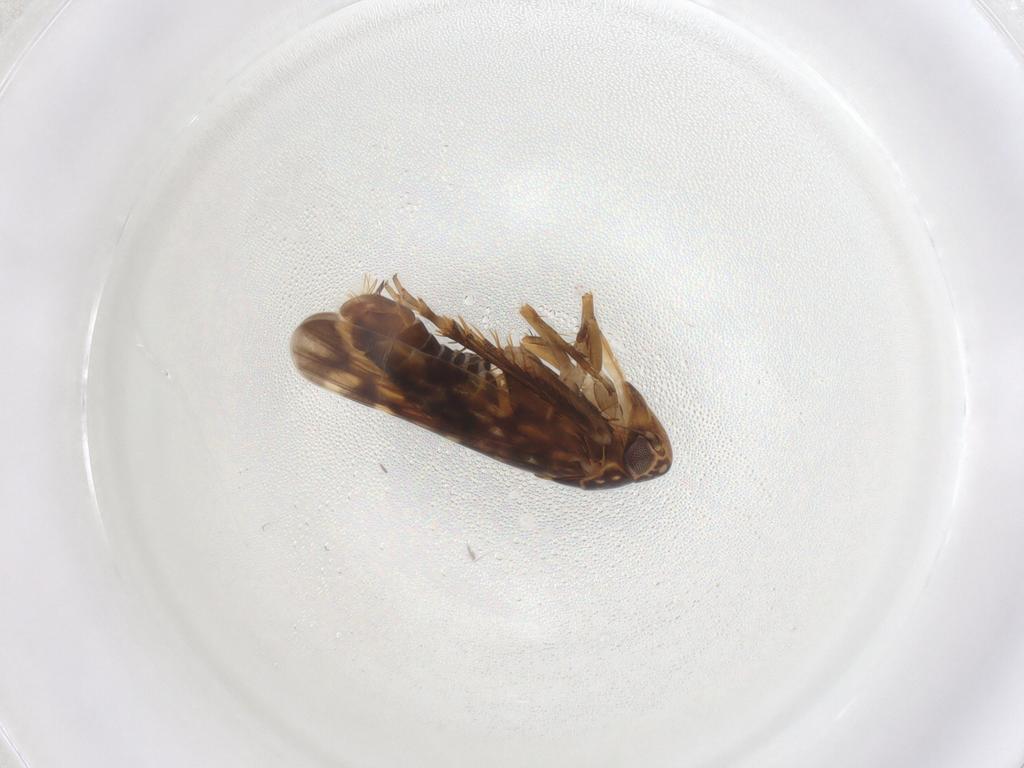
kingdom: Animalia
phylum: Arthropoda
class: Insecta
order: Hemiptera
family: Cicadellidae
